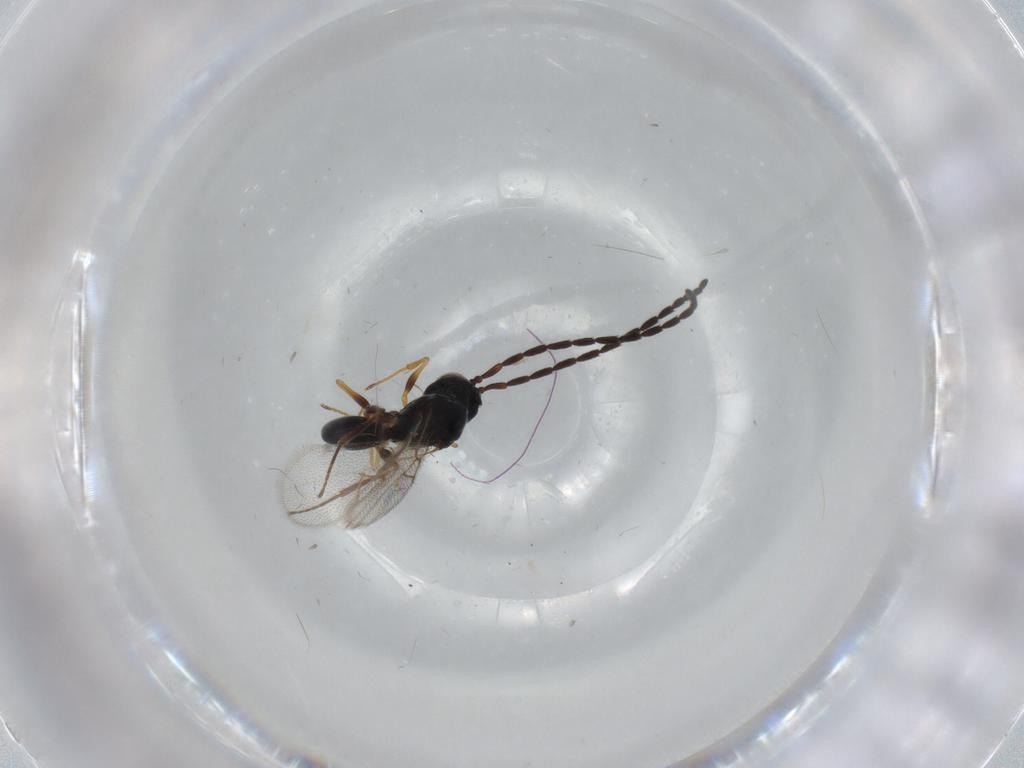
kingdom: Animalia
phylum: Arthropoda
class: Insecta
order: Hymenoptera
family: Figitidae
